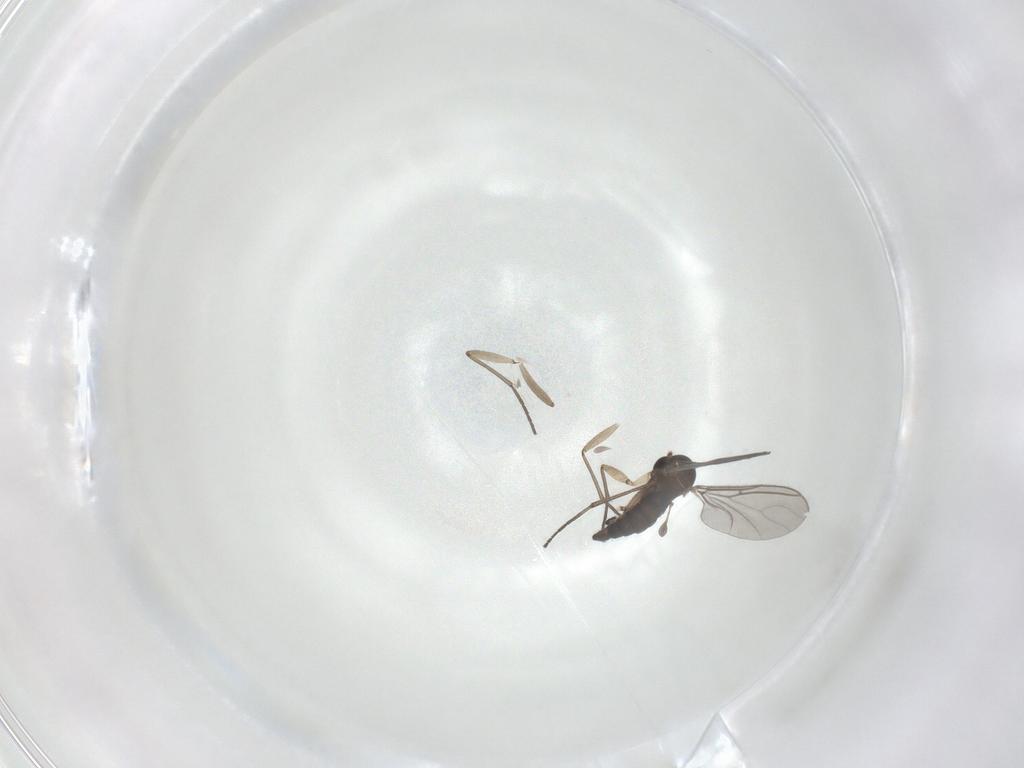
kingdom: Animalia
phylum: Arthropoda
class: Insecta
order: Diptera
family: Sciaridae
